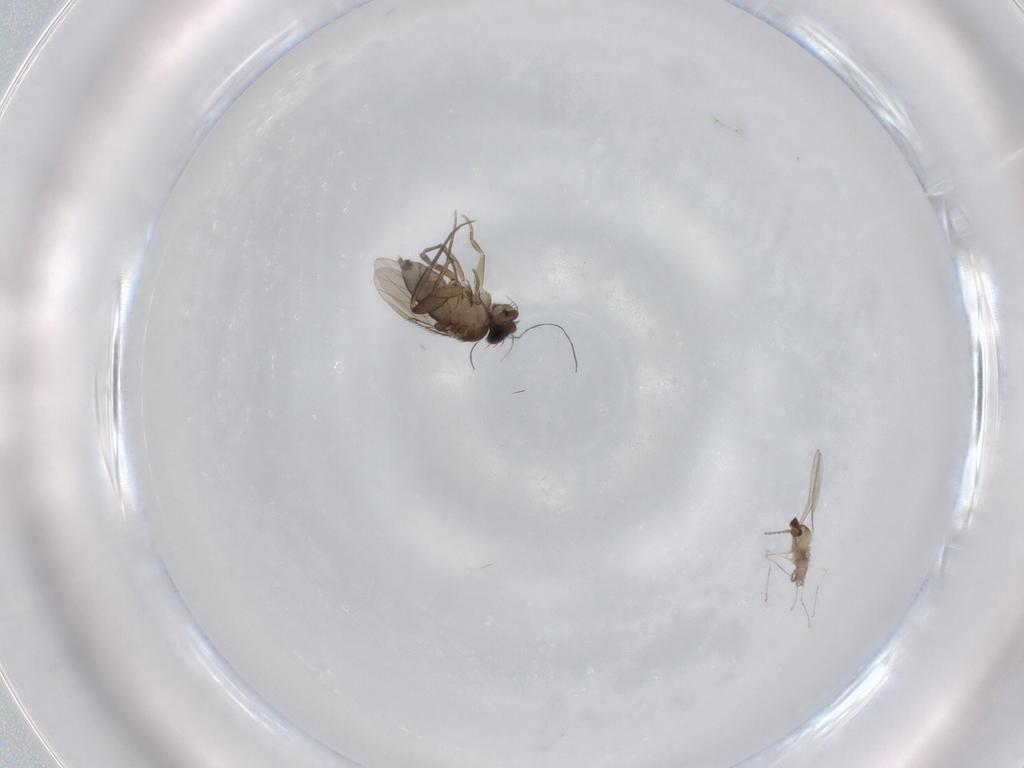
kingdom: Animalia
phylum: Arthropoda
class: Insecta
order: Diptera
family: Phoridae
